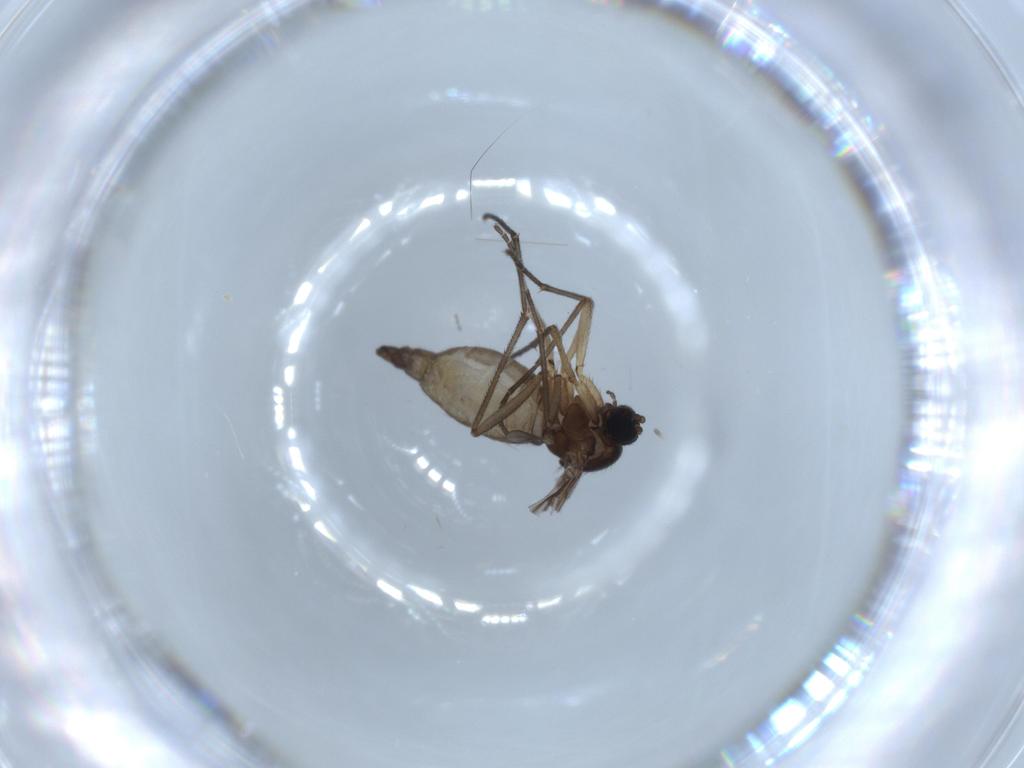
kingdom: Animalia
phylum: Arthropoda
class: Insecta
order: Diptera
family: Sciaridae
